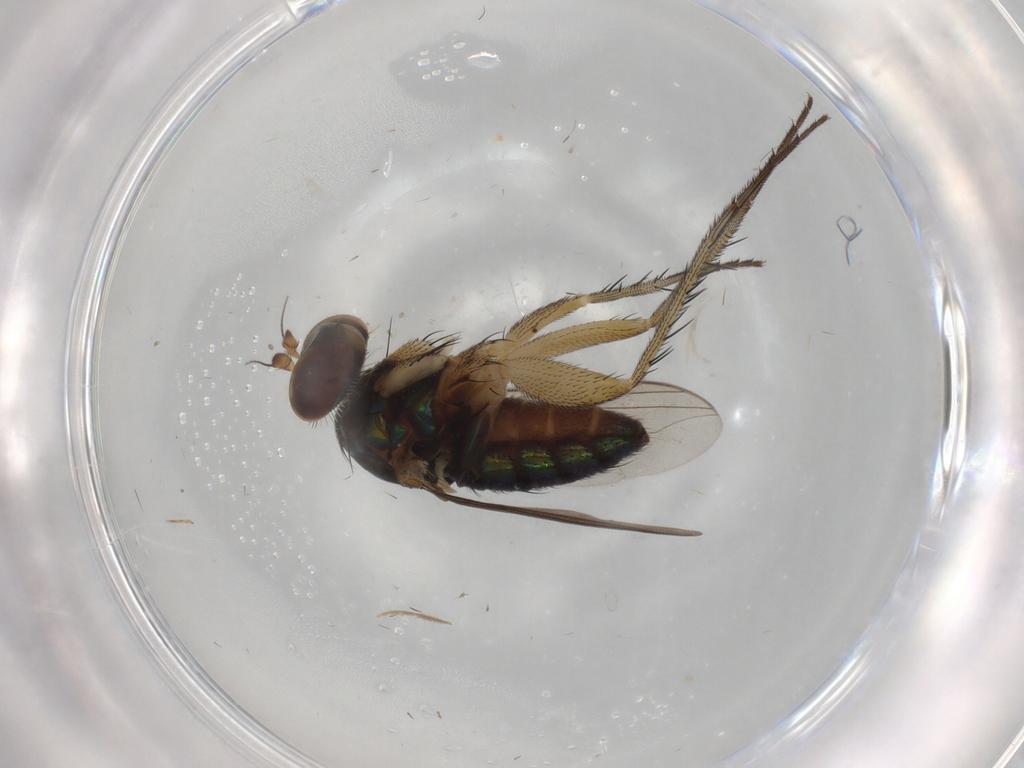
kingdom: Animalia
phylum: Arthropoda
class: Insecta
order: Diptera
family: Dolichopodidae
